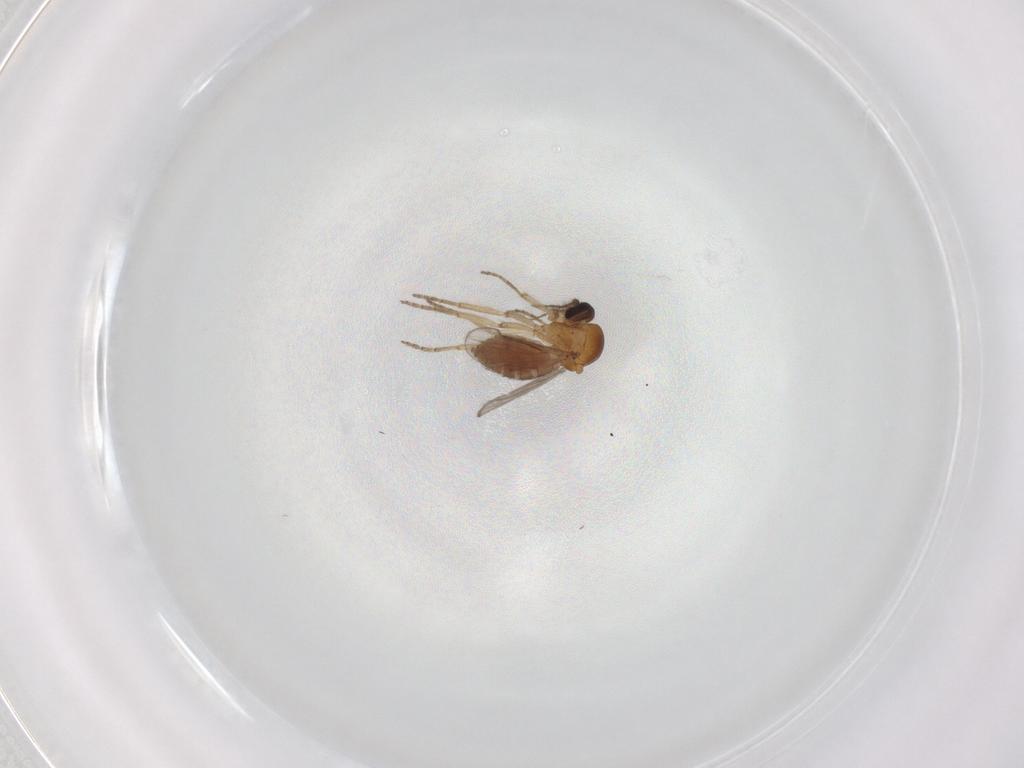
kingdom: Animalia
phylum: Arthropoda
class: Insecta
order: Diptera
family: Chironomidae
